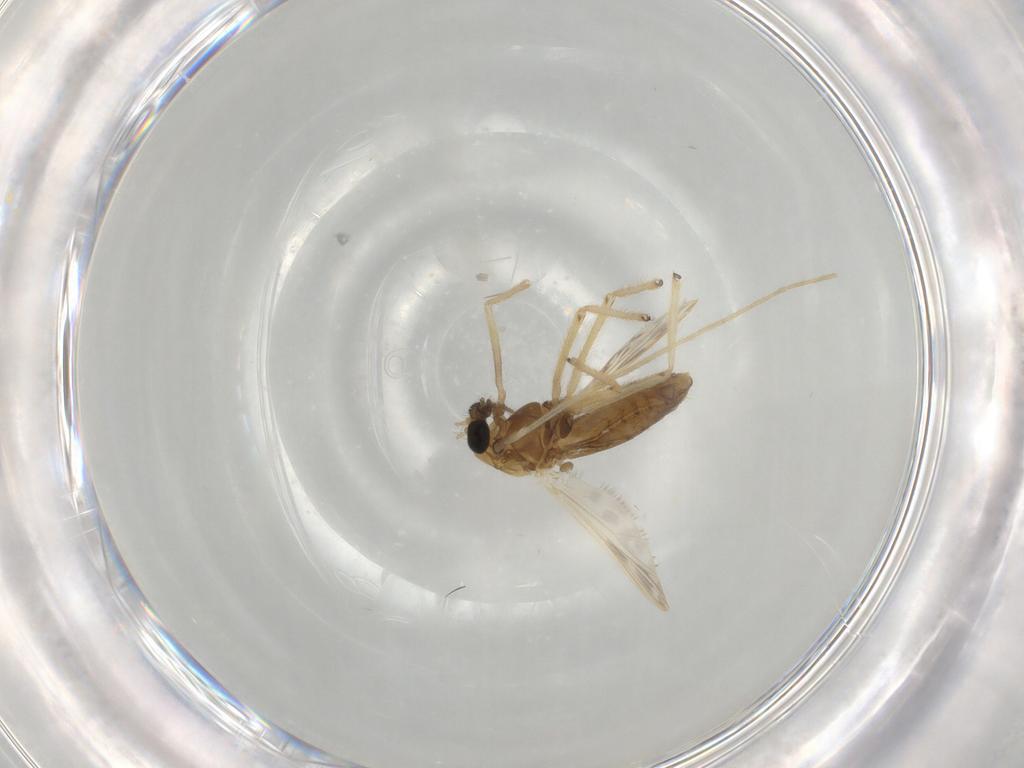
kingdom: Animalia
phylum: Arthropoda
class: Insecta
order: Diptera
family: Chironomidae
